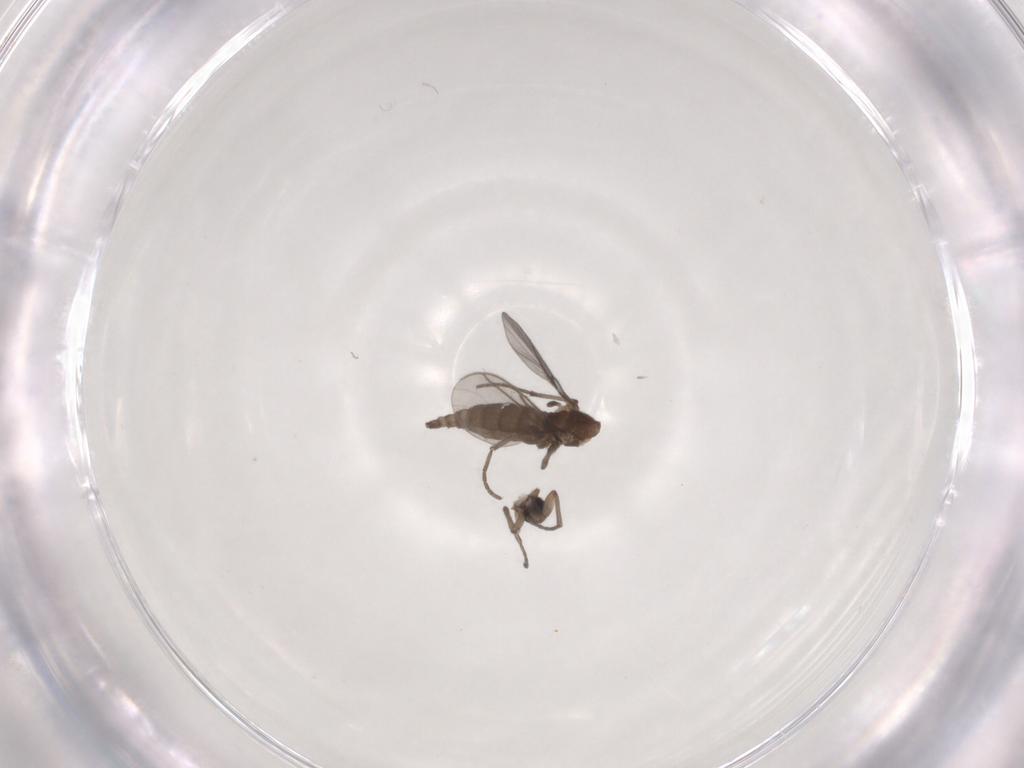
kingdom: Animalia
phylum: Arthropoda
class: Insecta
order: Diptera
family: Sciaridae
